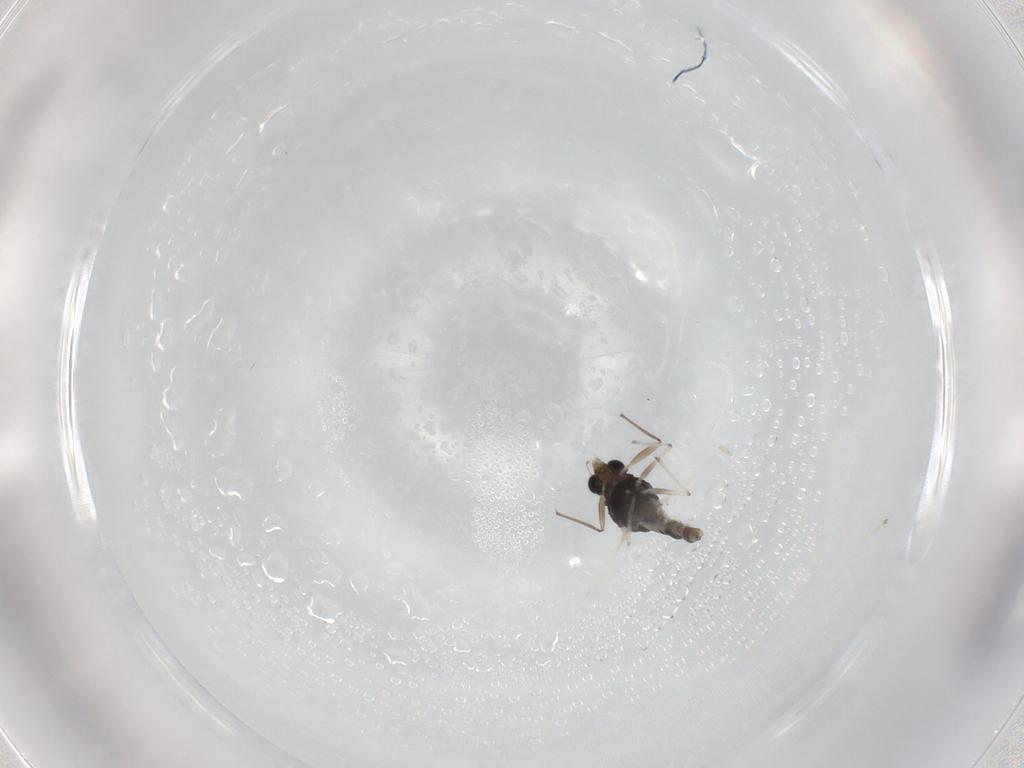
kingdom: Animalia
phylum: Arthropoda
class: Insecta
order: Diptera
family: Chironomidae
